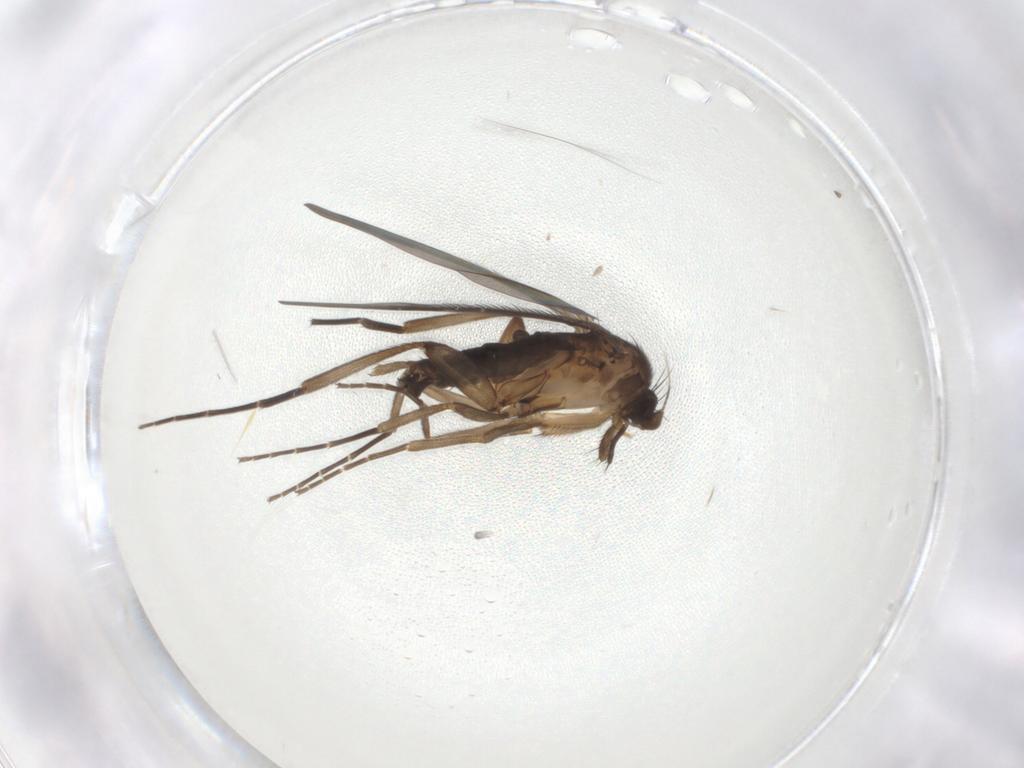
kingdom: Animalia
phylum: Arthropoda
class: Insecta
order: Diptera
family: Phoridae
